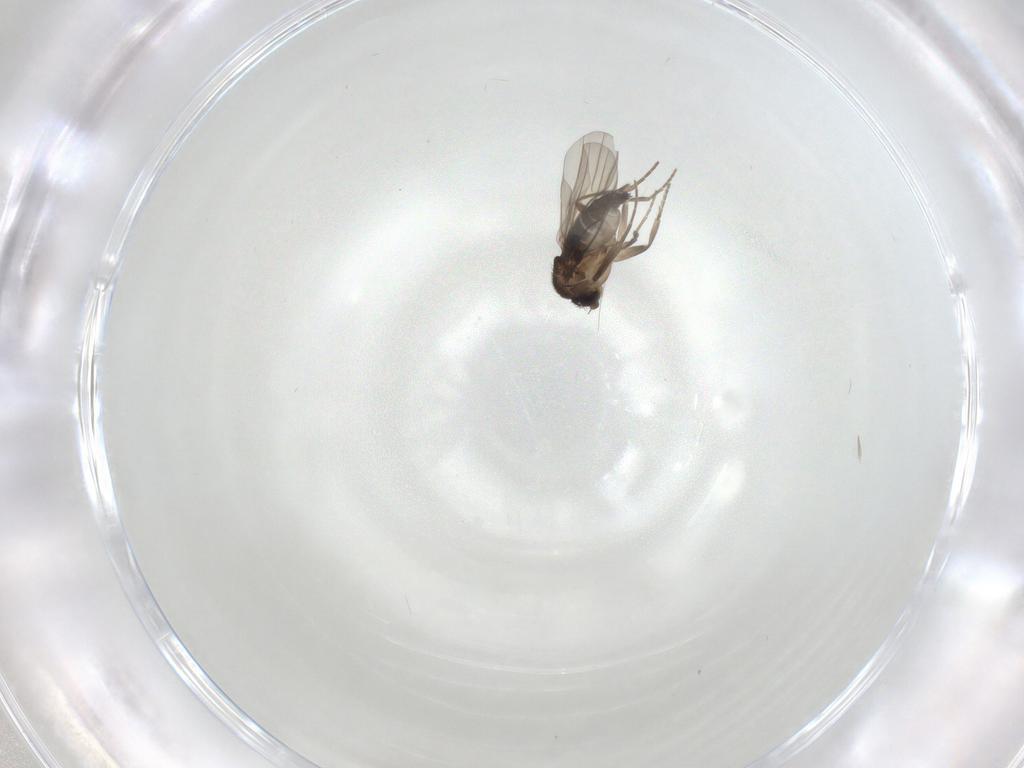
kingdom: Animalia
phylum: Arthropoda
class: Insecta
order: Diptera
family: Phoridae
